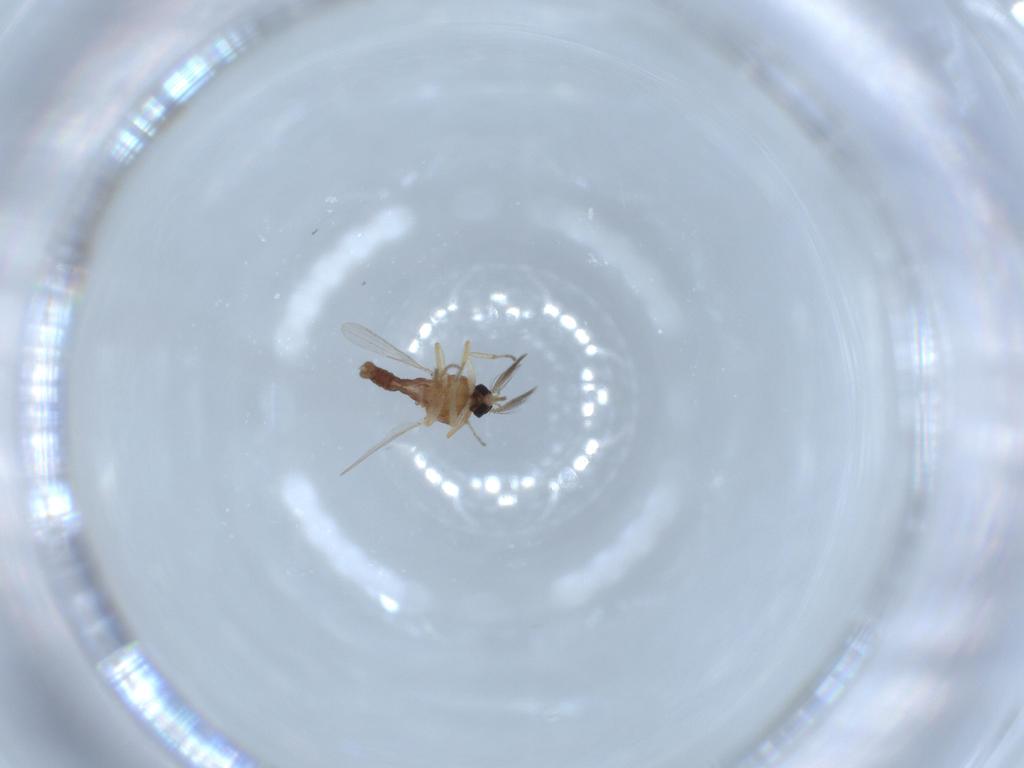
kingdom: Animalia
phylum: Arthropoda
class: Insecta
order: Diptera
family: Ceratopogonidae
